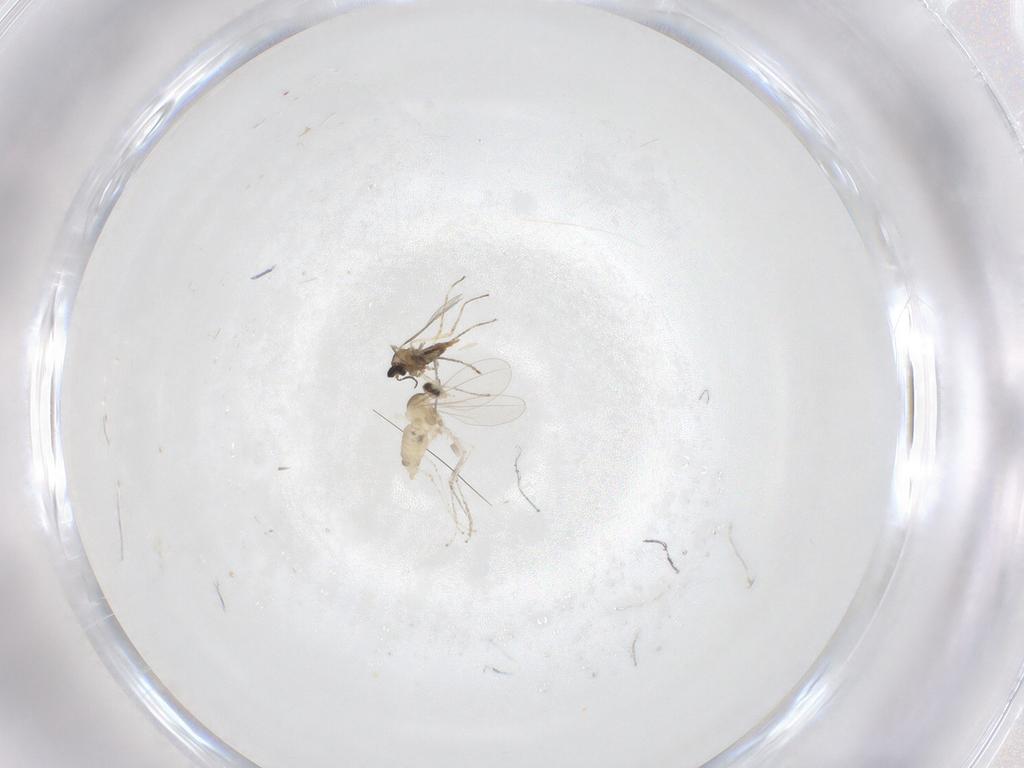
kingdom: Animalia
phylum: Arthropoda
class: Insecta
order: Diptera
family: Cecidomyiidae
